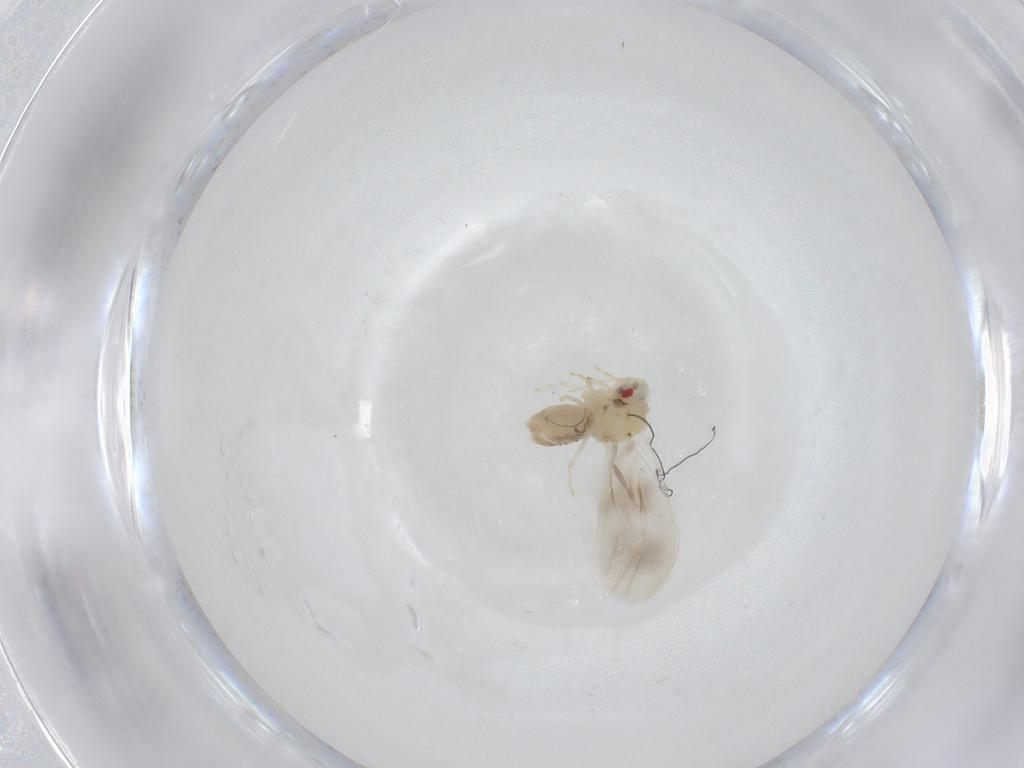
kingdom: Animalia
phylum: Arthropoda
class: Insecta
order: Hemiptera
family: Aleyrodidae
